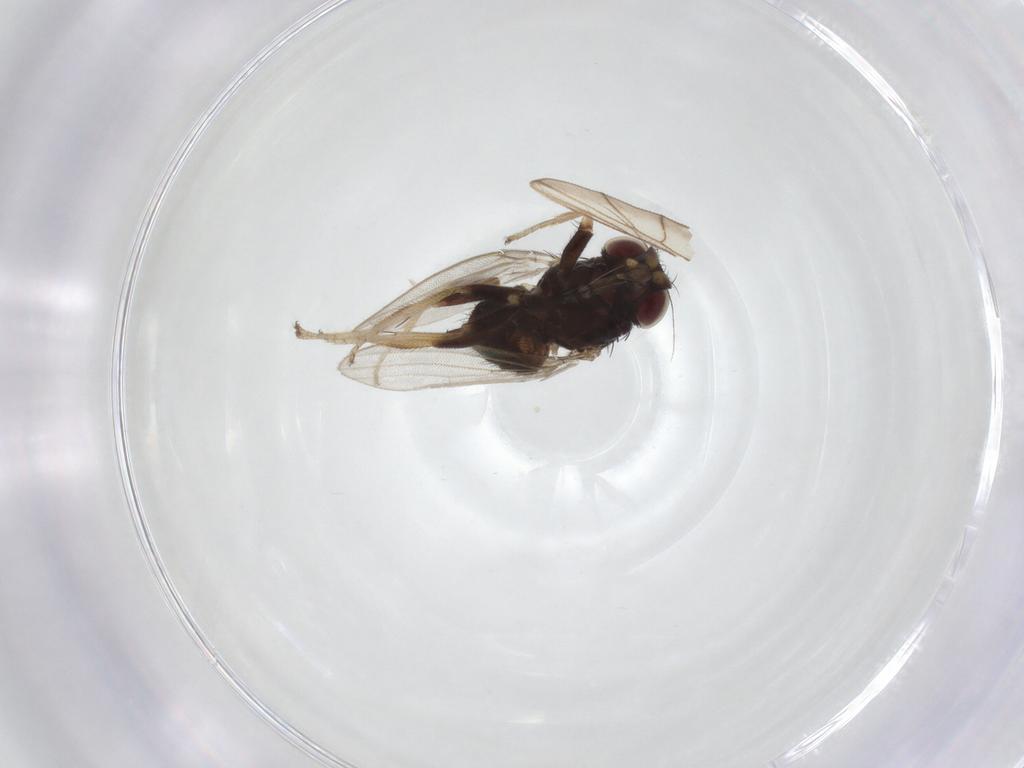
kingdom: Animalia
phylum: Arthropoda
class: Insecta
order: Diptera
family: Milichiidae
